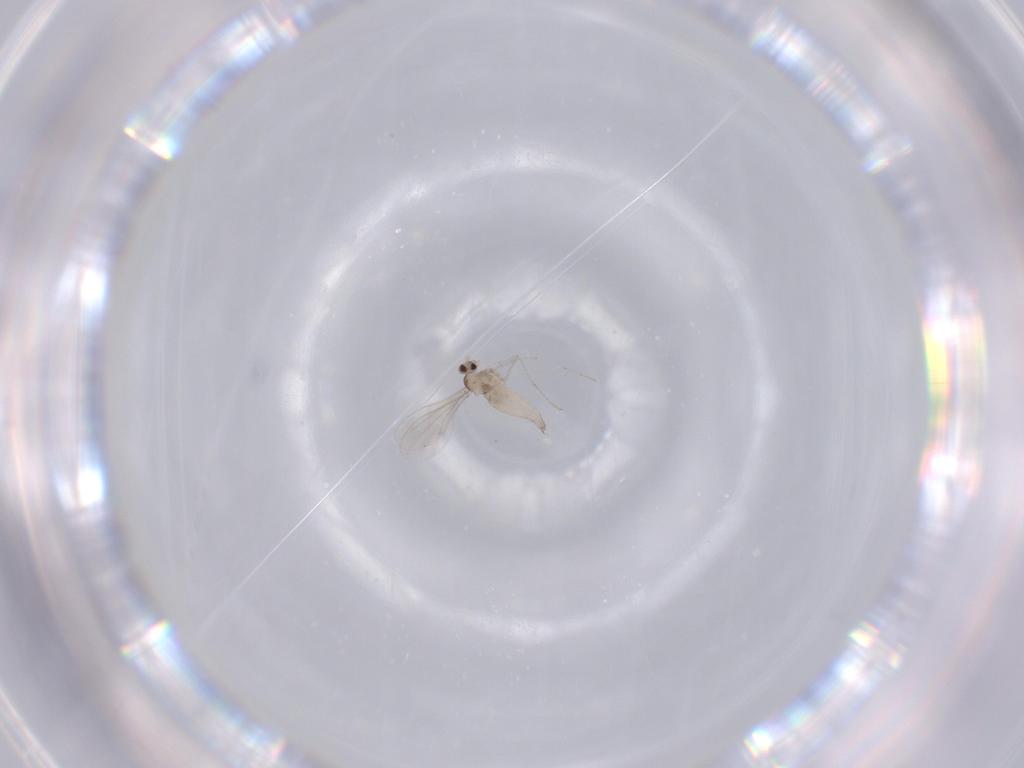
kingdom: Animalia
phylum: Arthropoda
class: Insecta
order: Diptera
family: Cecidomyiidae
